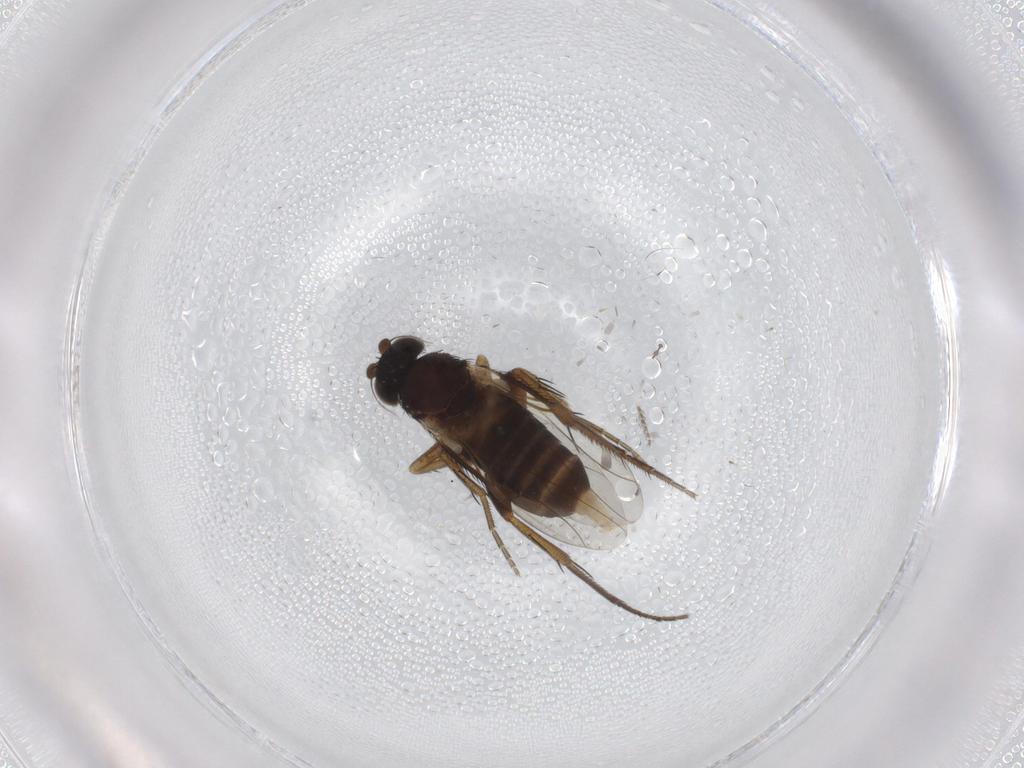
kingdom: Animalia
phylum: Arthropoda
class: Insecta
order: Diptera
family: Phoridae
